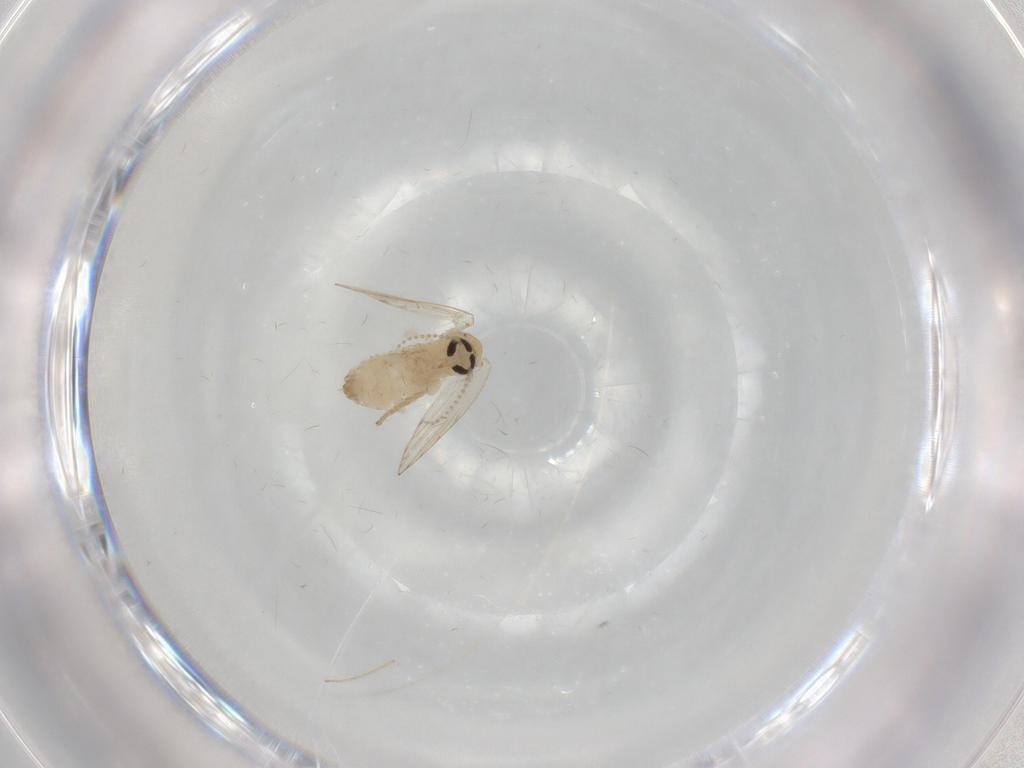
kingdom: Animalia
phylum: Arthropoda
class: Insecta
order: Diptera
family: Psychodidae
